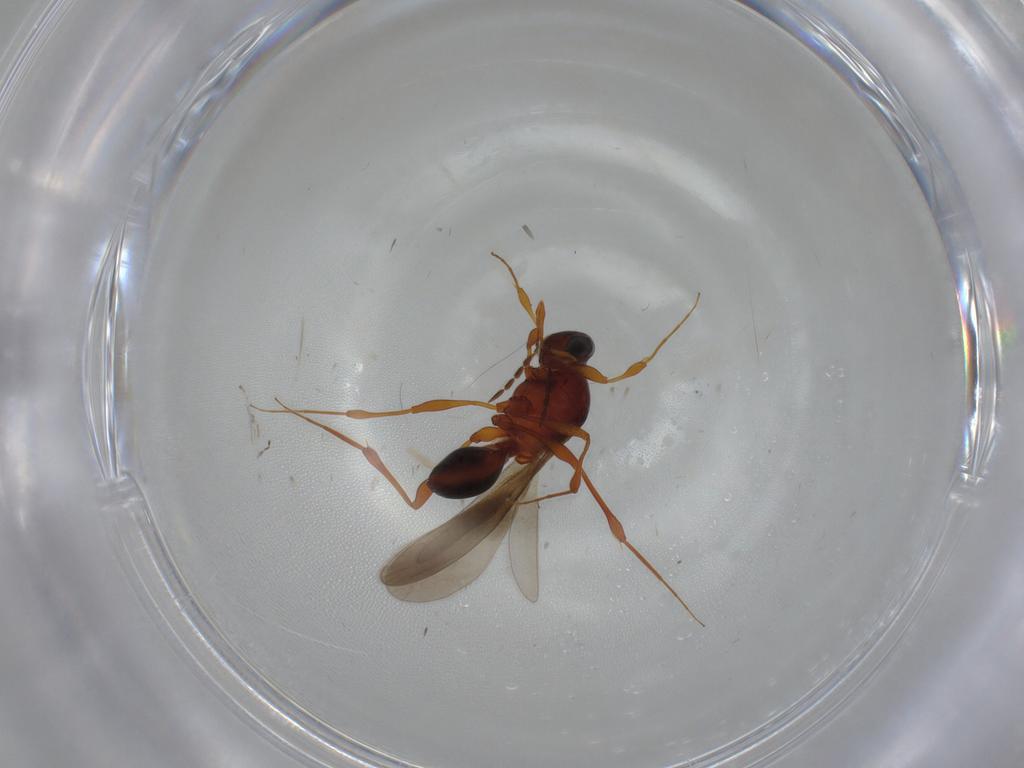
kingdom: Animalia
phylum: Arthropoda
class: Insecta
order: Hymenoptera
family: Platygastridae
